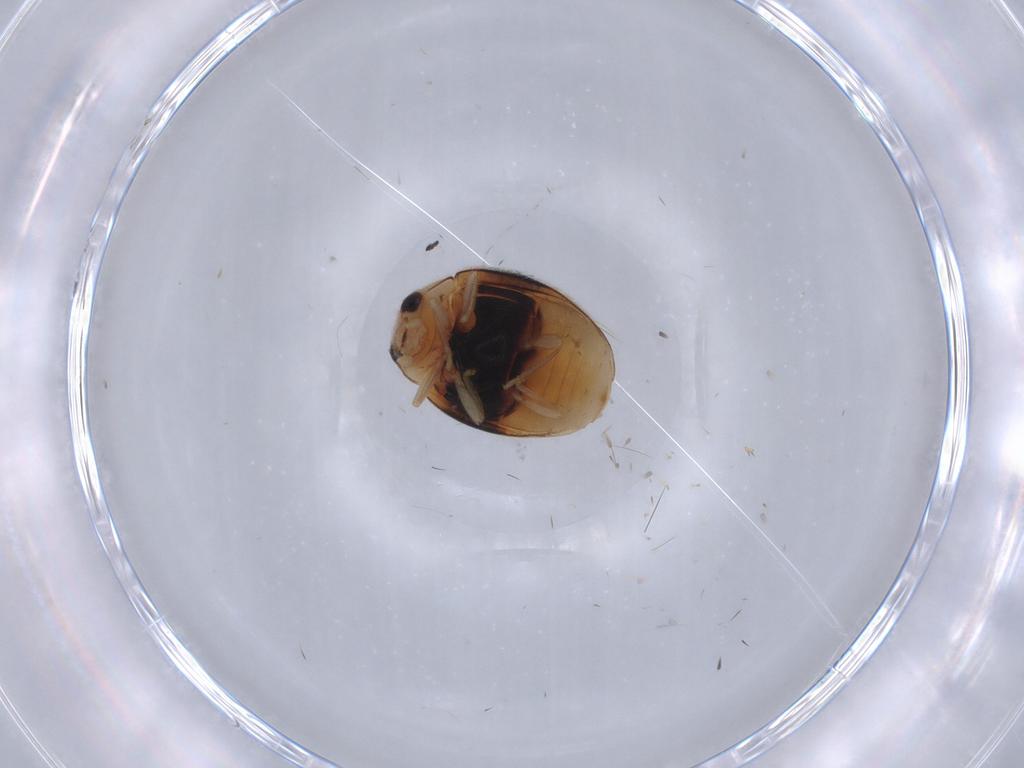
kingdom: Animalia
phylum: Arthropoda
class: Insecta
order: Coleoptera
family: Coccinellidae
